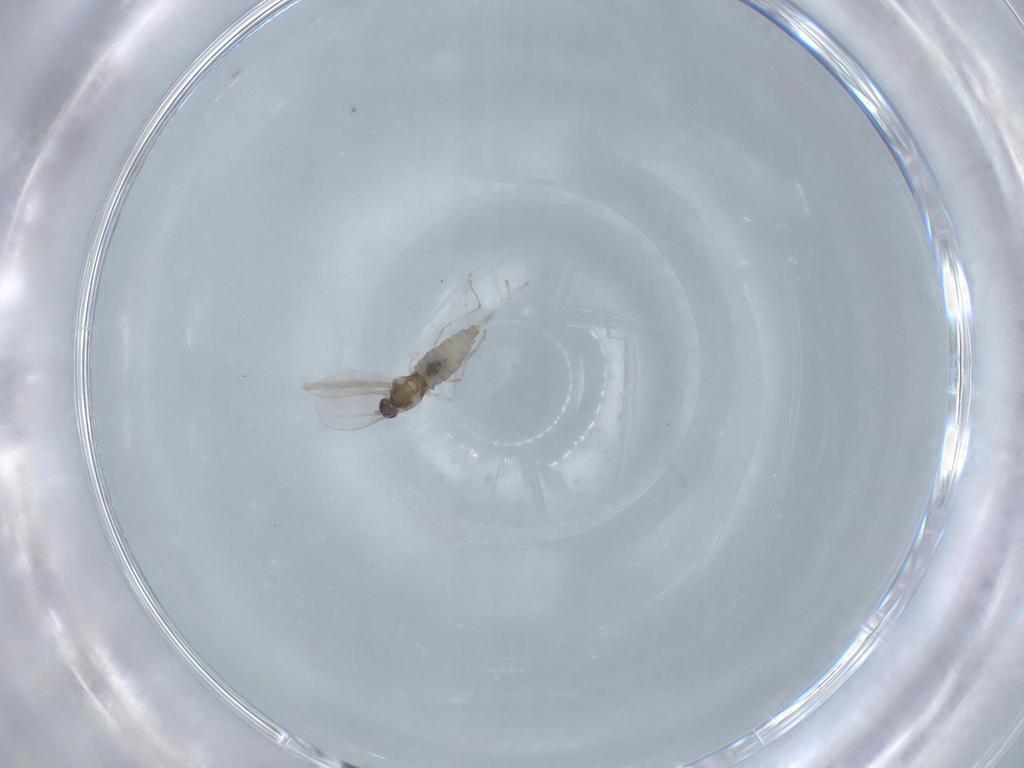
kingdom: Animalia
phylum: Arthropoda
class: Insecta
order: Diptera
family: Cecidomyiidae
